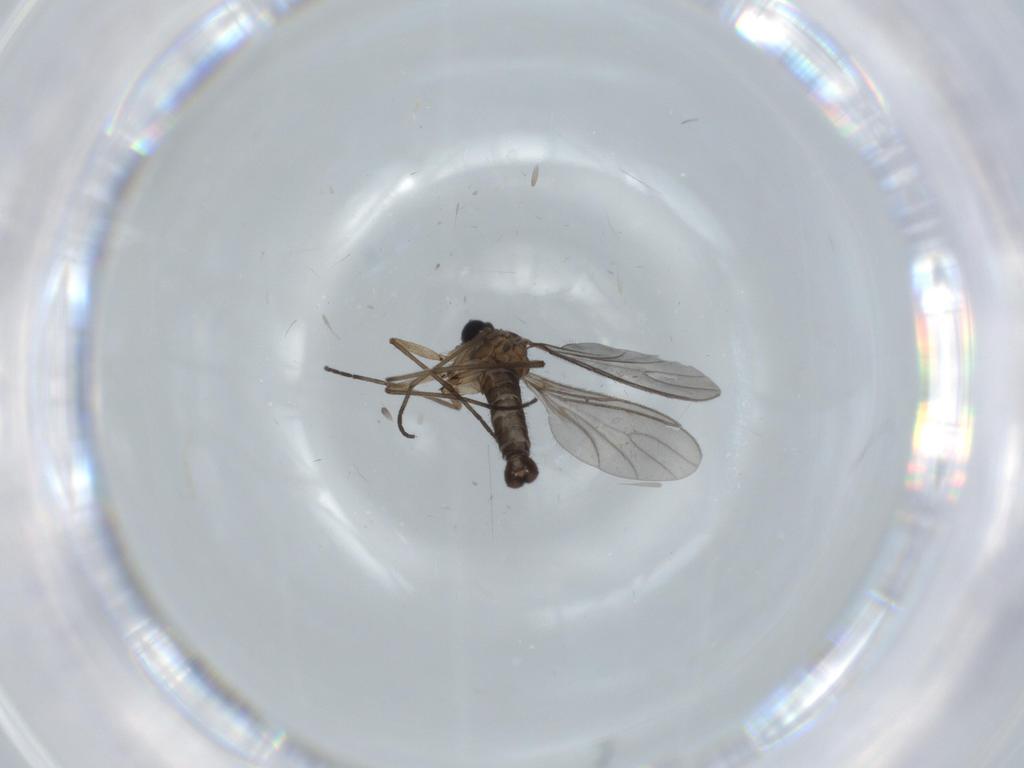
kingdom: Animalia
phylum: Arthropoda
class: Insecta
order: Diptera
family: Sciaridae
